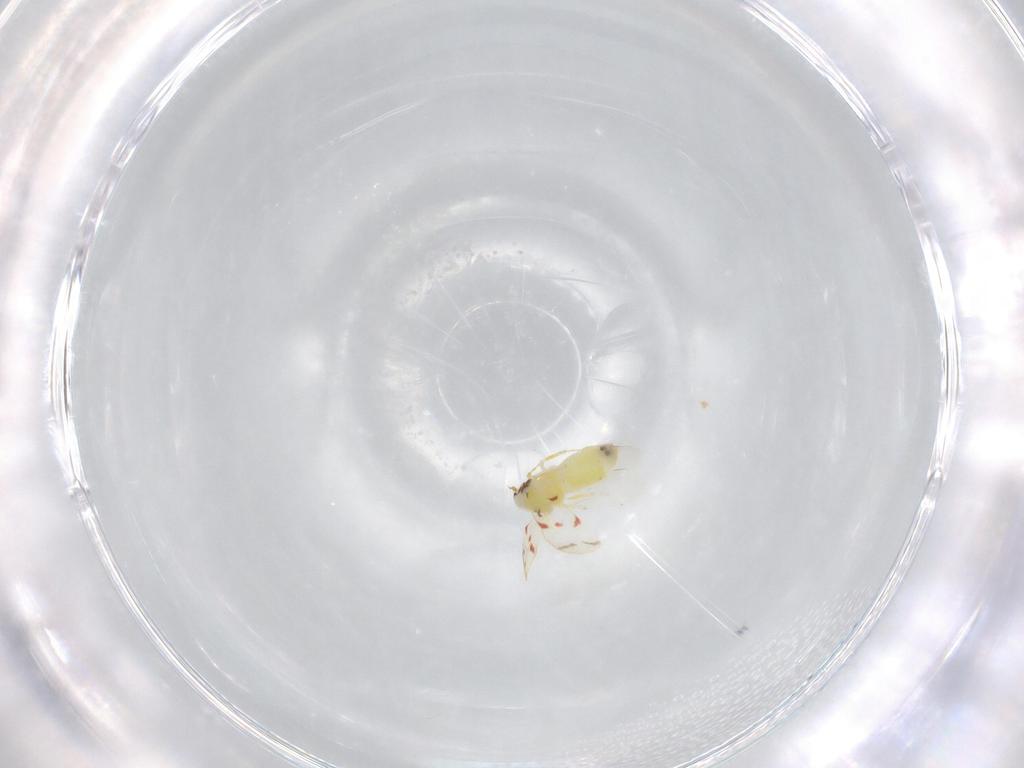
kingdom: Animalia
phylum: Arthropoda
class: Insecta
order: Hemiptera
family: Aleyrodidae
